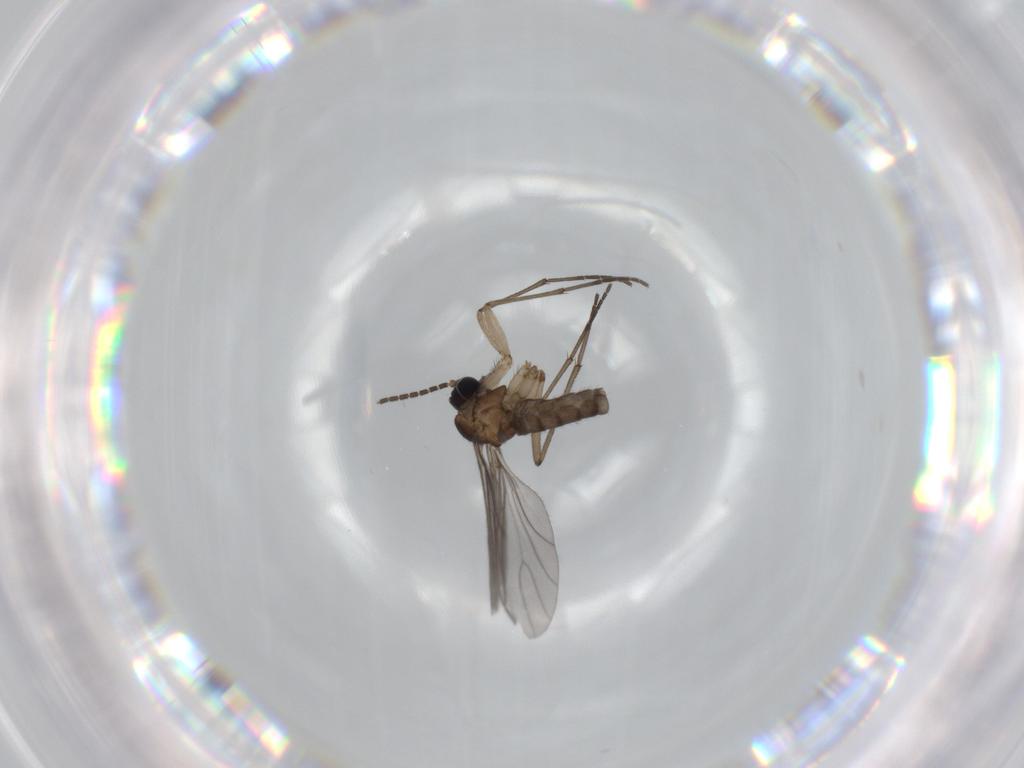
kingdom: Animalia
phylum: Arthropoda
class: Insecta
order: Diptera
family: Sciaridae
